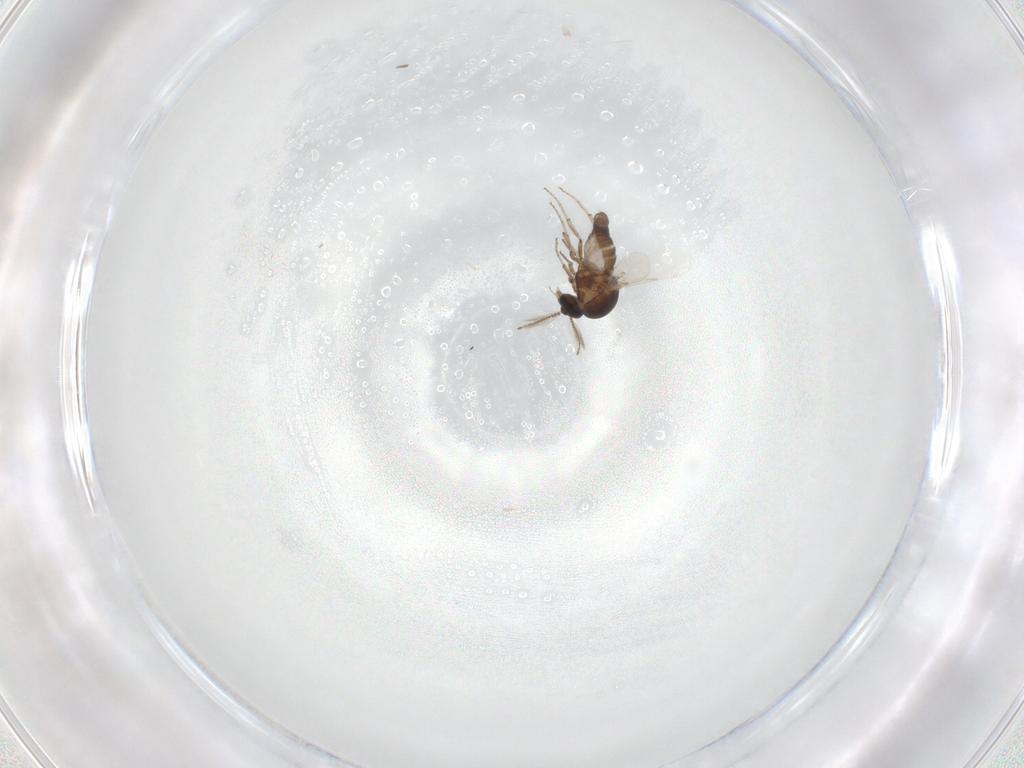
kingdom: Animalia
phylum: Arthropoda
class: Insecta
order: Diptera
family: Ceratopogonidae
